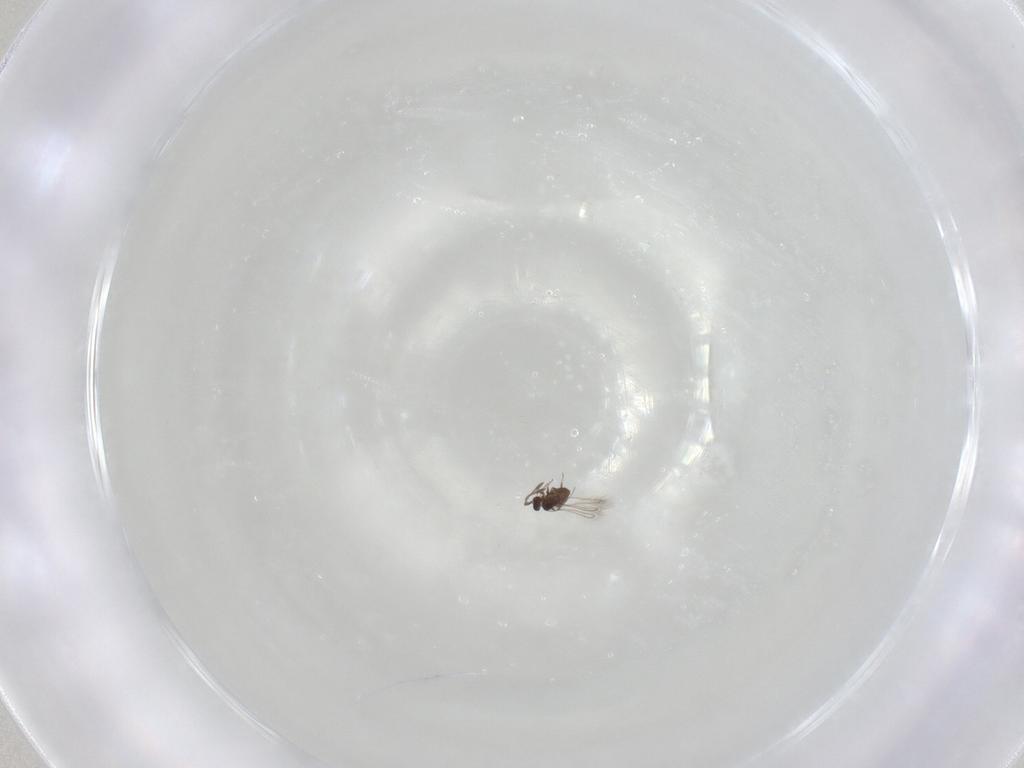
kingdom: Animalia
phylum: Arthropoda
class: Insecta
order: Hymenoptera
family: Mymaridae
